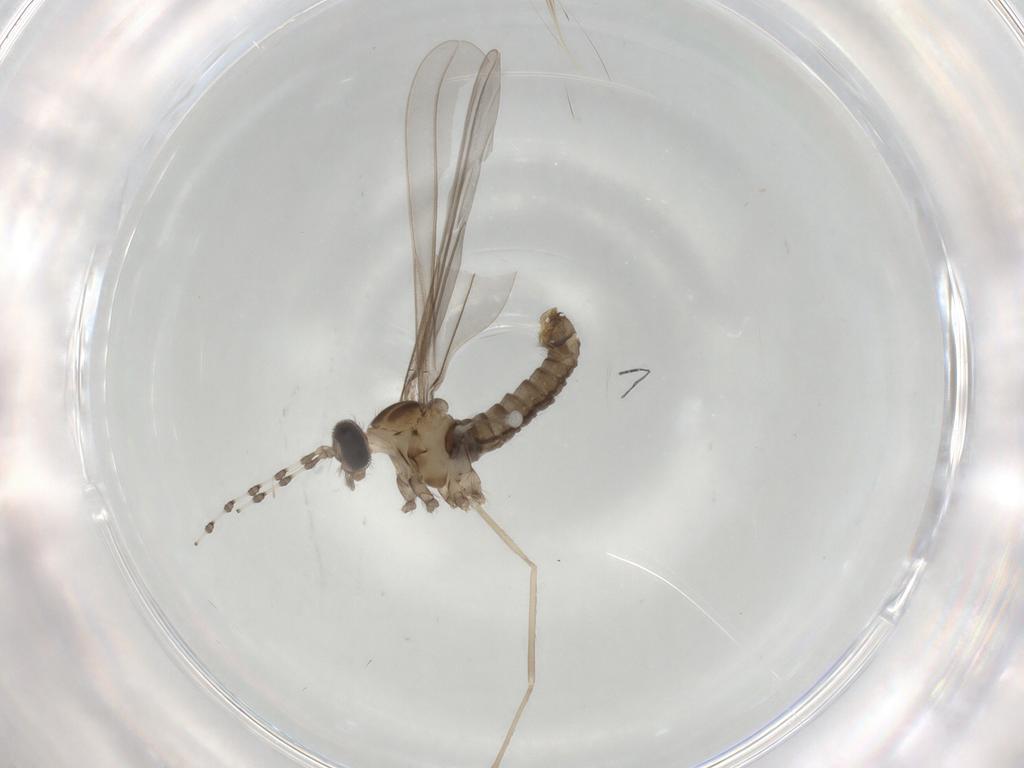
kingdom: Animalia
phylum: Arthropoda
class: Insecta
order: Diptera
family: Cecidomyiidae
